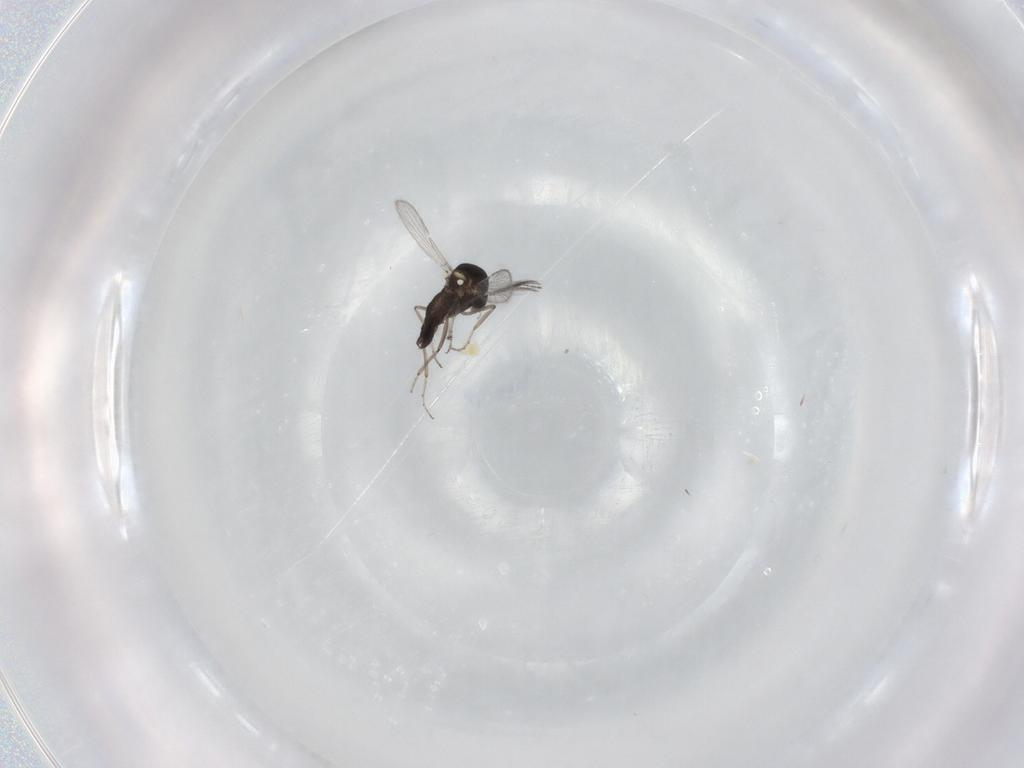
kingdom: Animalia
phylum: Arthropoda
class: Insecta
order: Diptera
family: Ceratopogonidae
